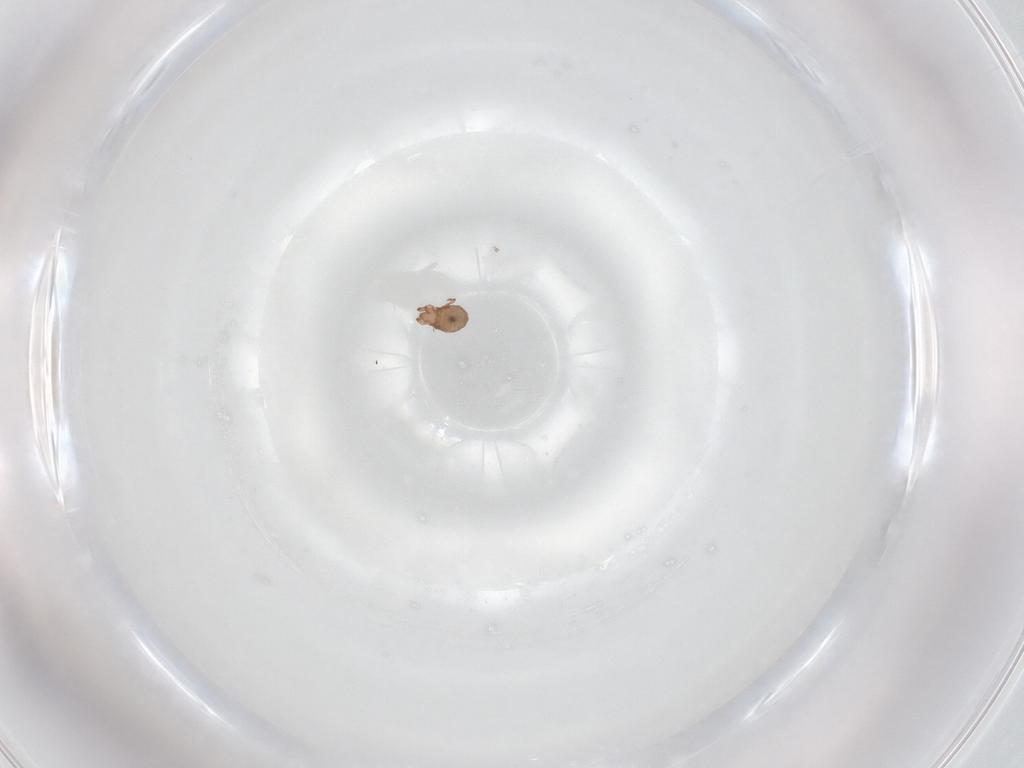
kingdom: Animalia
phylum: Arthropoda
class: Arachnida
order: Sarcoptiformes
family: Eremaeidae
